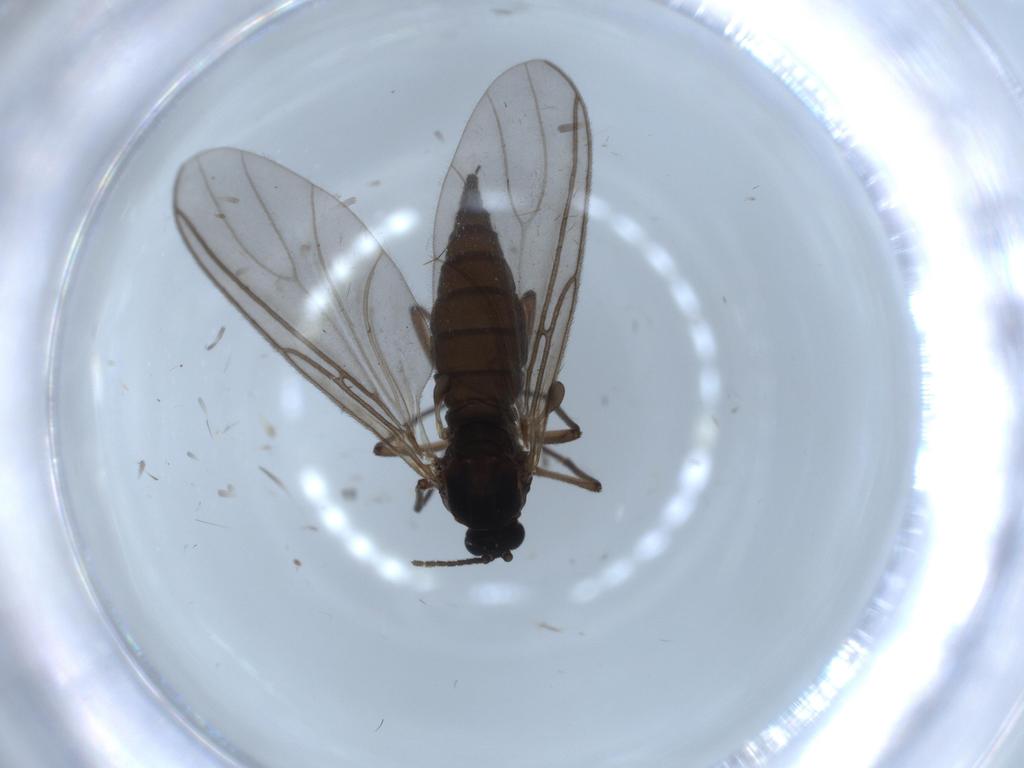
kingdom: Animalia
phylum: Arthropoda
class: Insecta
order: Diptera
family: Sciaridae
